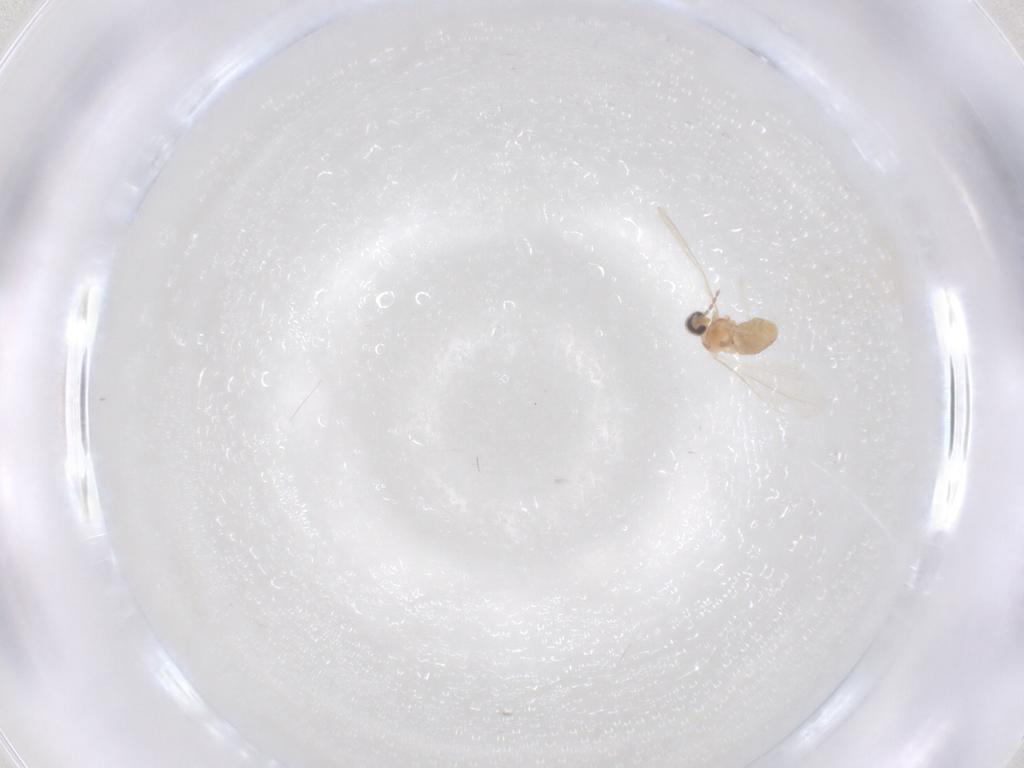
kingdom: Animalia
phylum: Arthropoda
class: Insecta
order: Diptera
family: Cecidomyiidae
